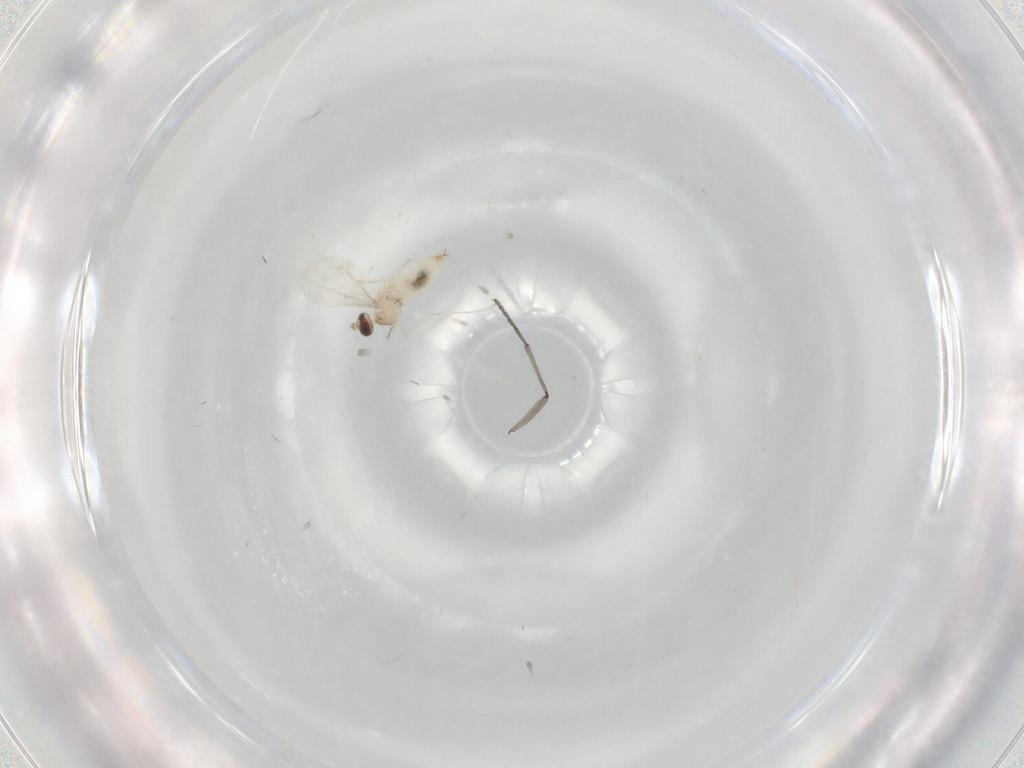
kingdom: Animalia
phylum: Arthropoda
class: Insecta
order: Diptera
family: Sciaridae
